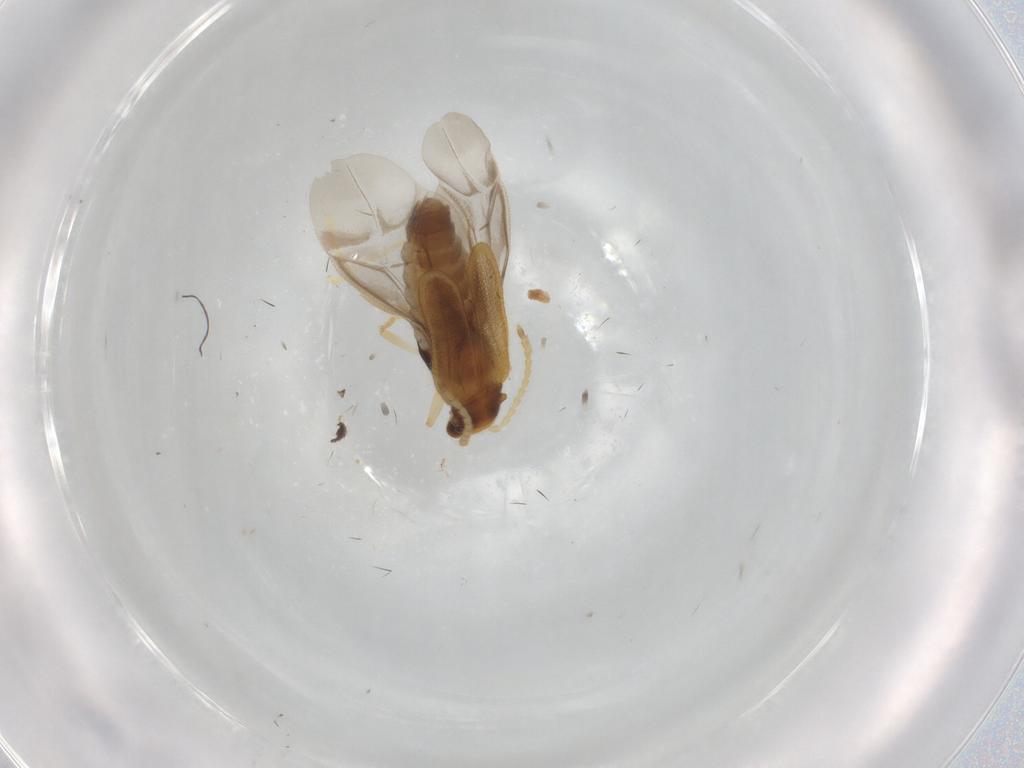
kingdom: Animalia
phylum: Arthropoda
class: Insecta
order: Coleoptera
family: Cantharidae
